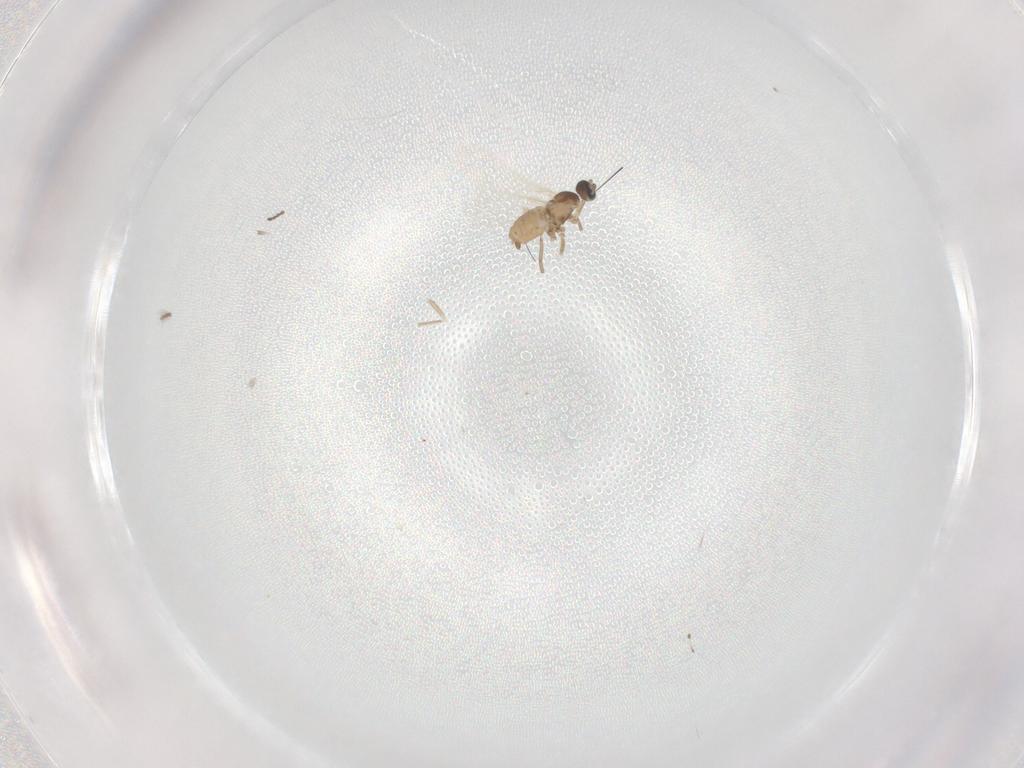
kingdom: Animalia
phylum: Arthropoda
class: Insecta
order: Diptera
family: Cecidomyiidae
